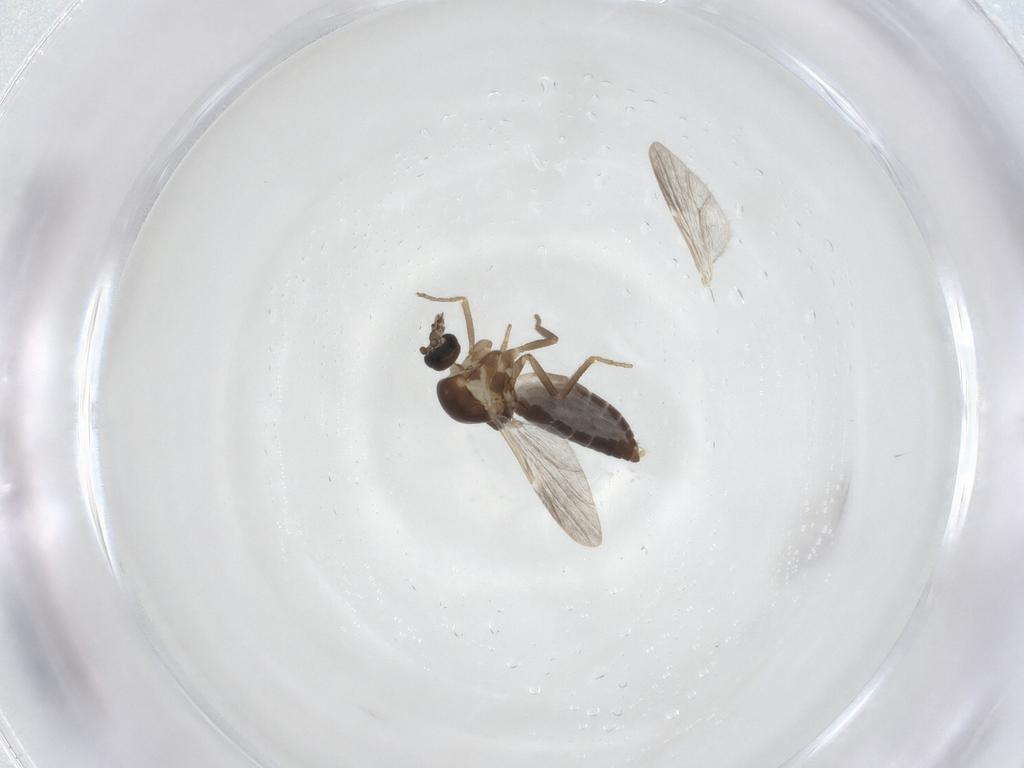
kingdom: Animalia
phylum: Arthropoda
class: Insecta
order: Diptera
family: Ceratopogonidae
